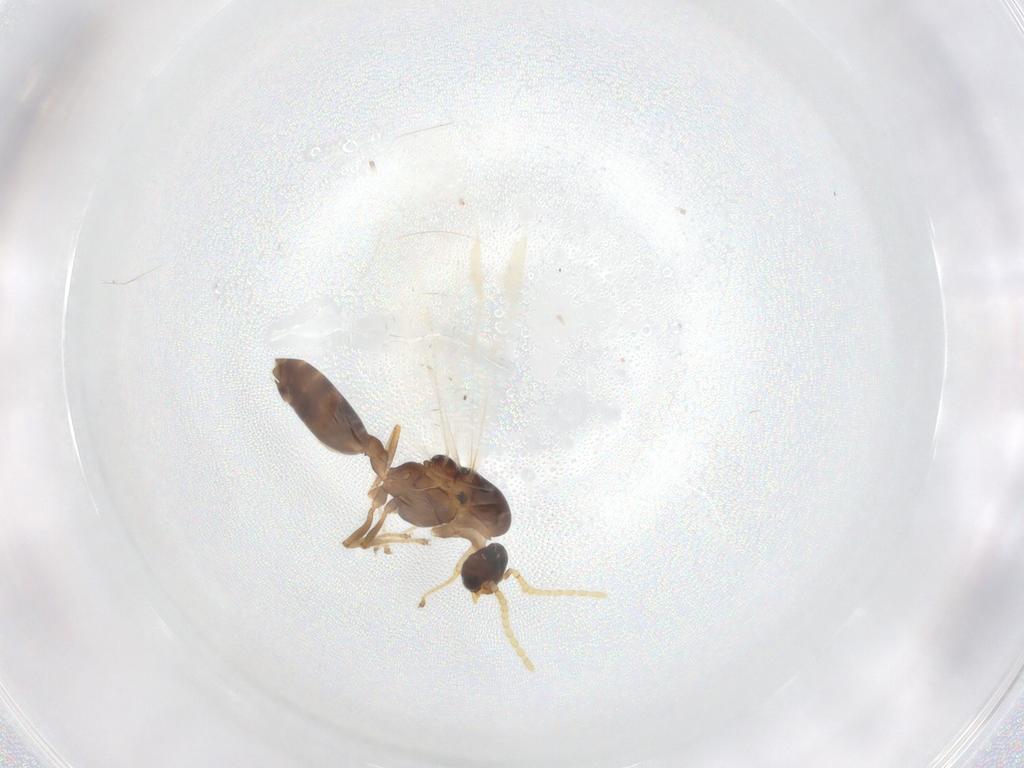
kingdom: Animalia
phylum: Arthropoda
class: Insecta
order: Hymenoptera
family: Formicidae
